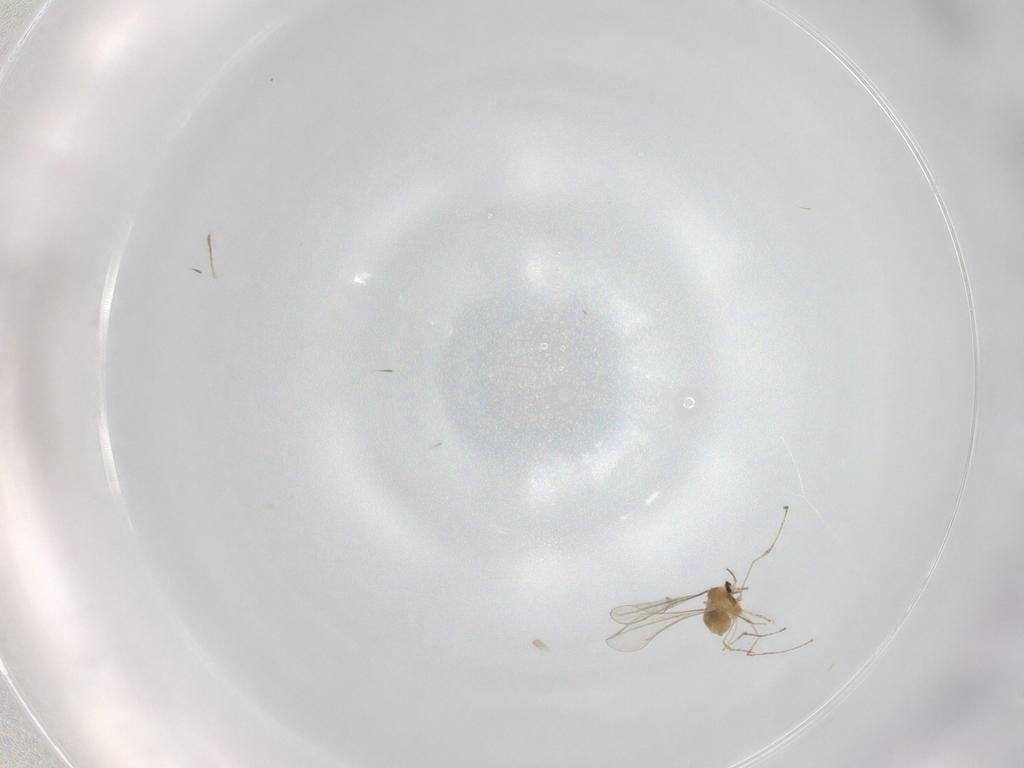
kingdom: Animalia
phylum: Arthropoda
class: Insecta
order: Diptera
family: Cecidomyiidae
